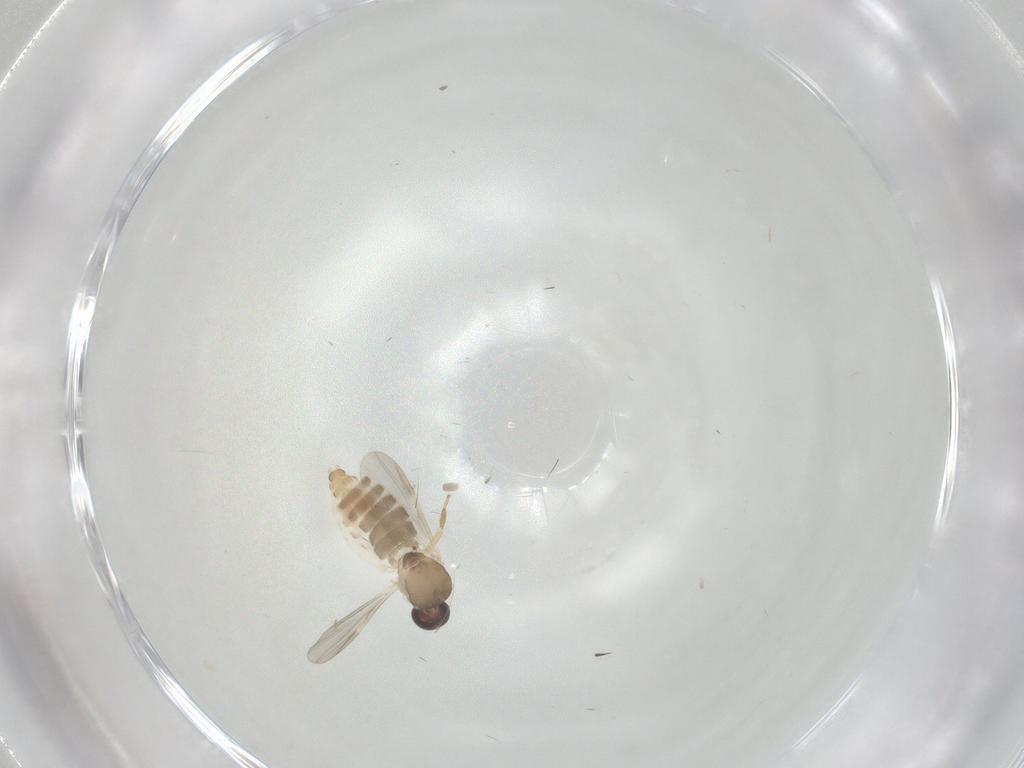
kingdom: Animalia
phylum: Arthropoda
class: Insecta
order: Diptera
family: Ceratopogonidae
